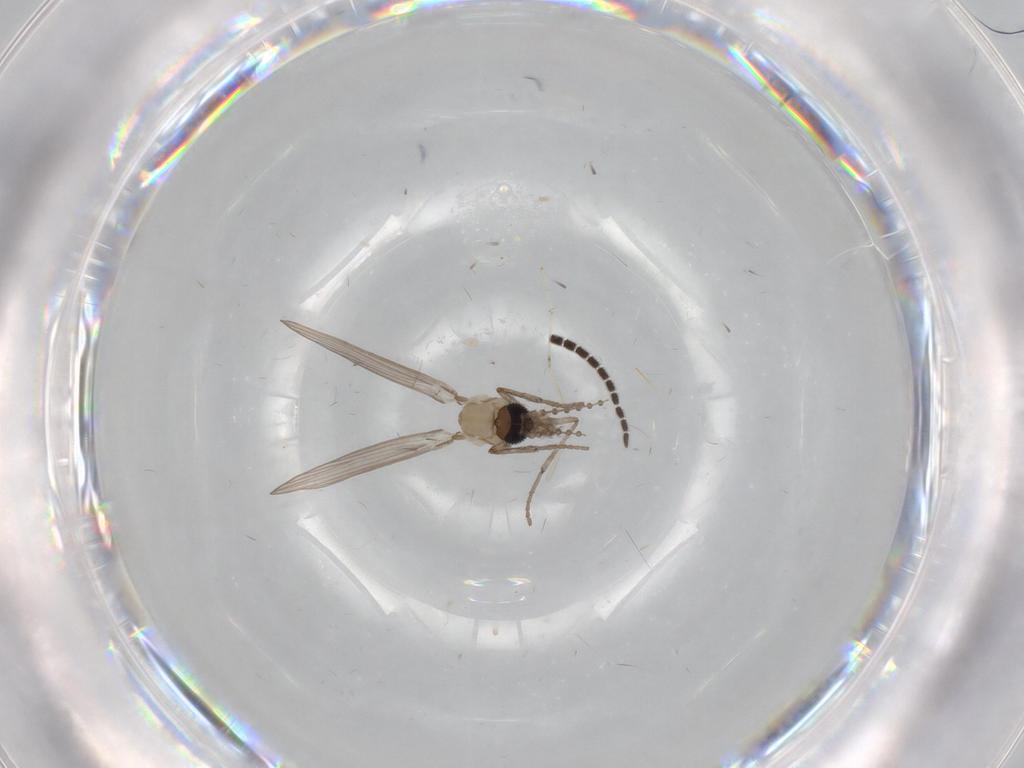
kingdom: Animalia
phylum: Arthropoda
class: Insecta
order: Diptera
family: Psychodidae
